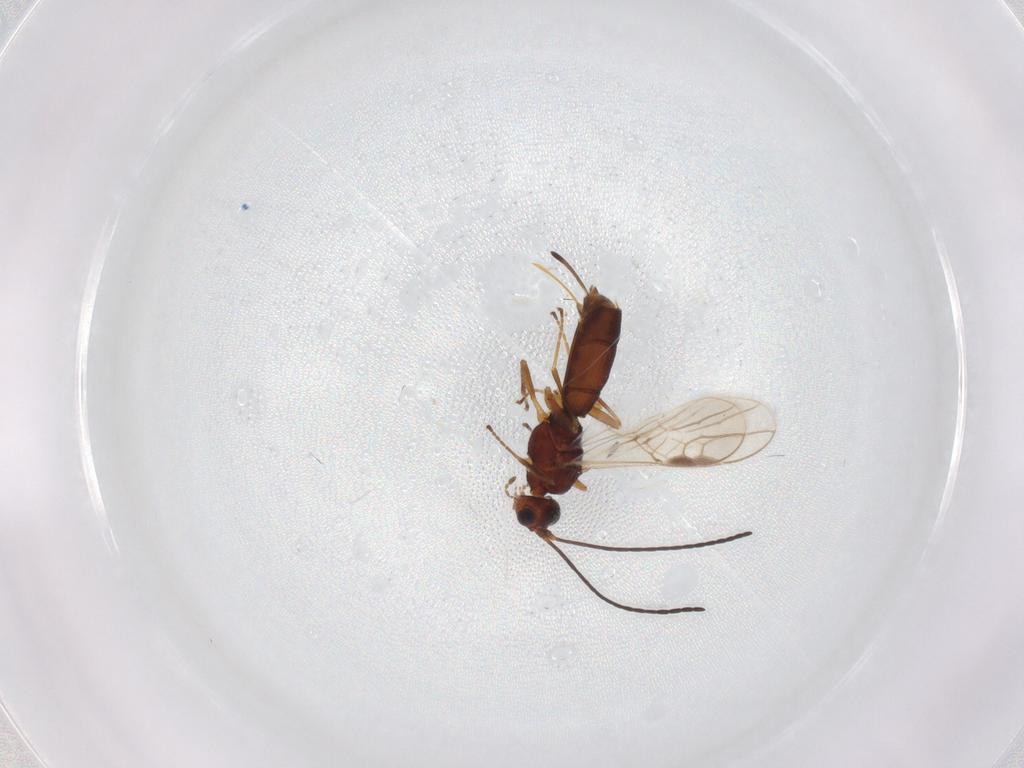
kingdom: Animalia
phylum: Arthropoda
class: Insecta
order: Hymenoptera
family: Braconidae
